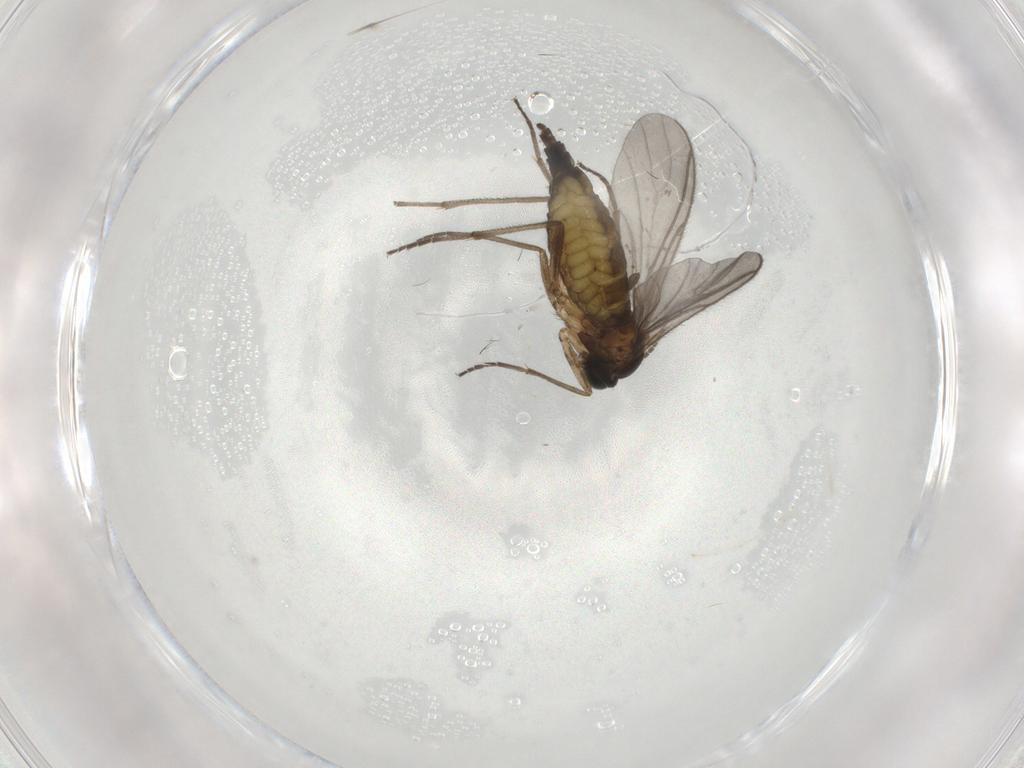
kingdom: Animalia
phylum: Arthropoda
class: Insecta
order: Diptera
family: Cecidomyiidae
